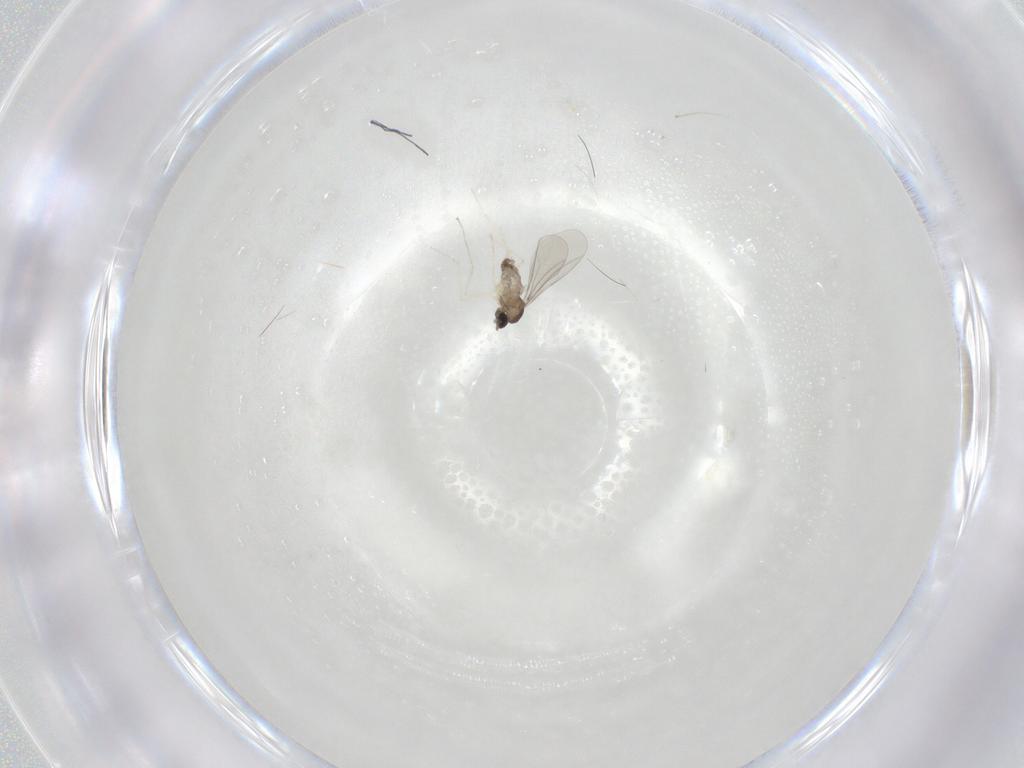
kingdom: Animalia
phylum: Arthropoda
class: Insecta
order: Diptera
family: Cecidomyiidae
